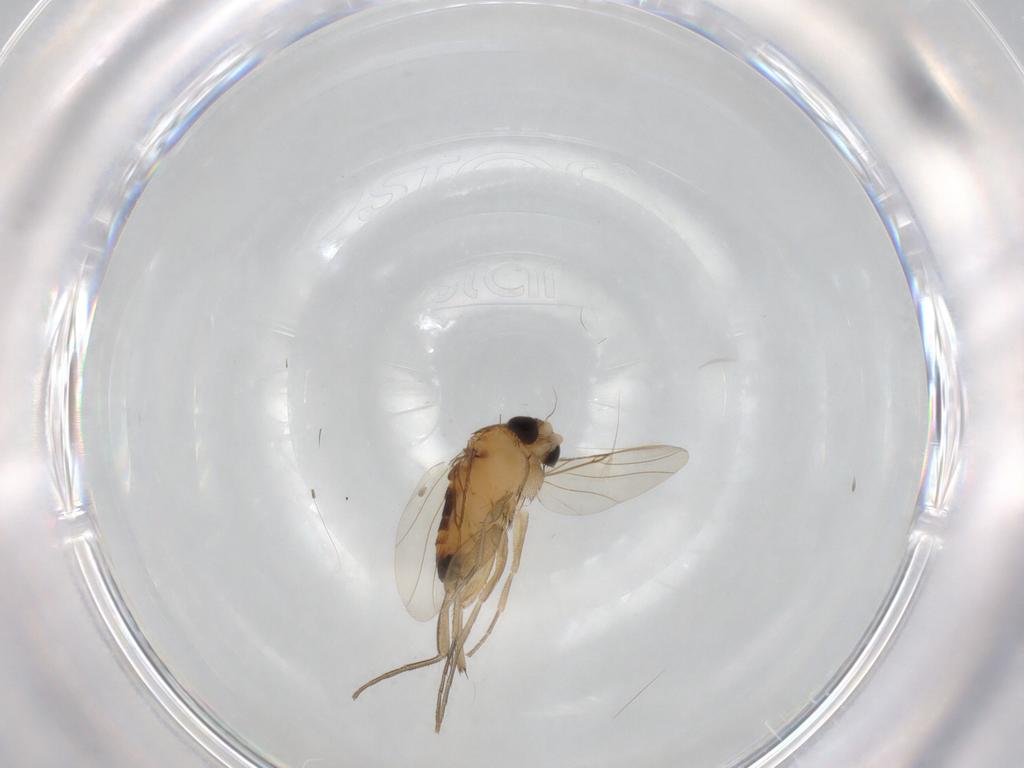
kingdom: Animalia
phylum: Arthropoda
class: Insecta
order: Diptera
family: Phoridae
